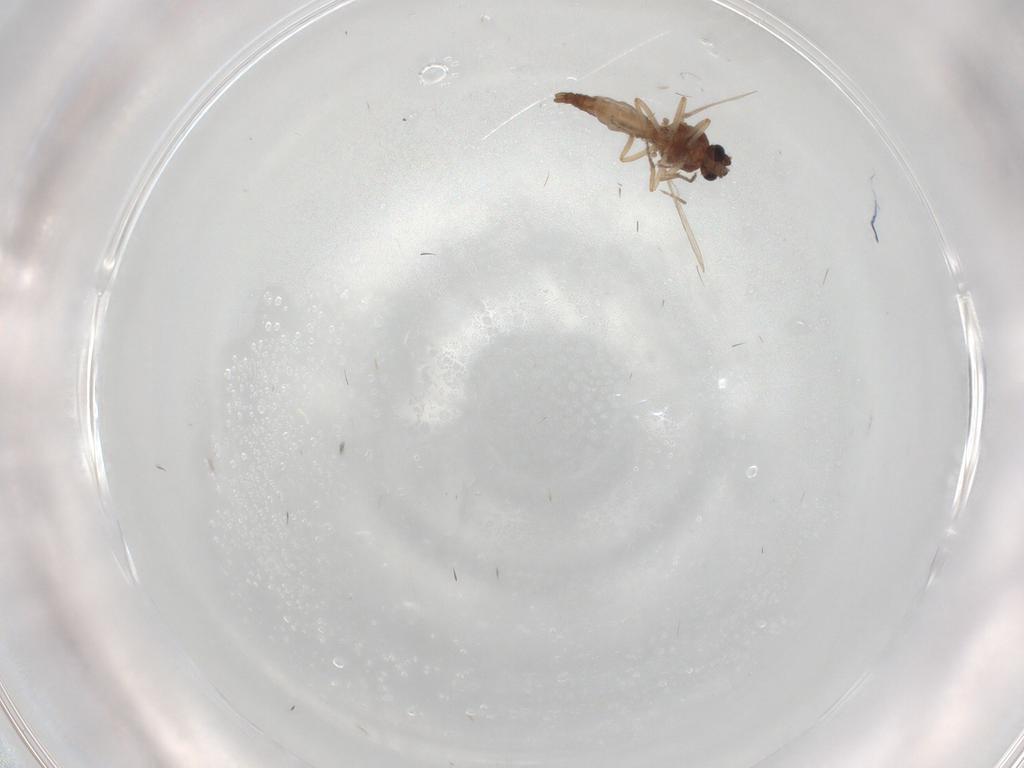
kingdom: Animalia
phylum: Arthropoda
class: Insecta
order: Diptera
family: Ceratopogonidae
